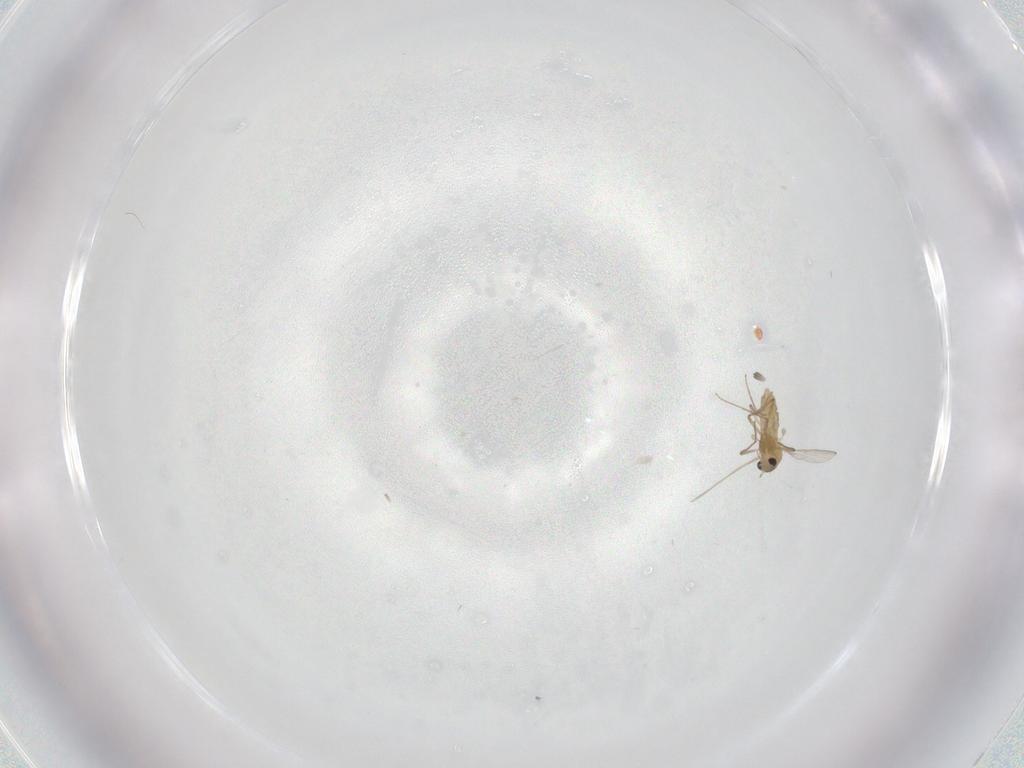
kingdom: Animalia
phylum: Arthropoda
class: Insecta
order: Diptera
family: Chironomidae
